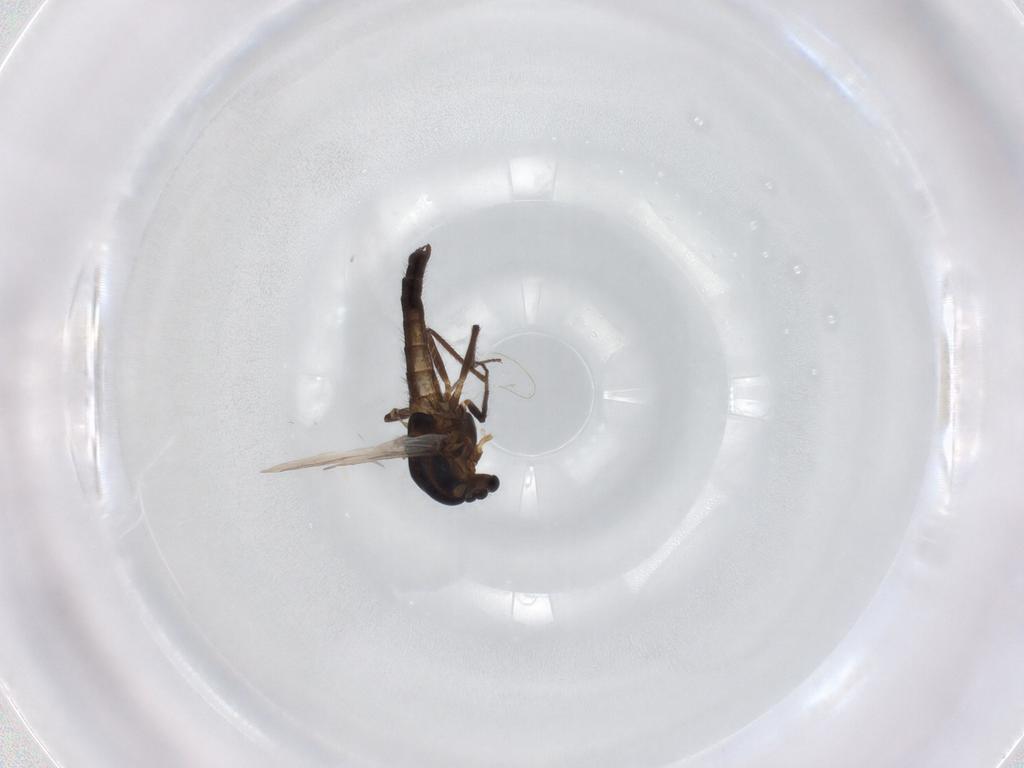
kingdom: Animalia
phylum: Arthropoda
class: Insecta
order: Diptera
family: Chironomidae
